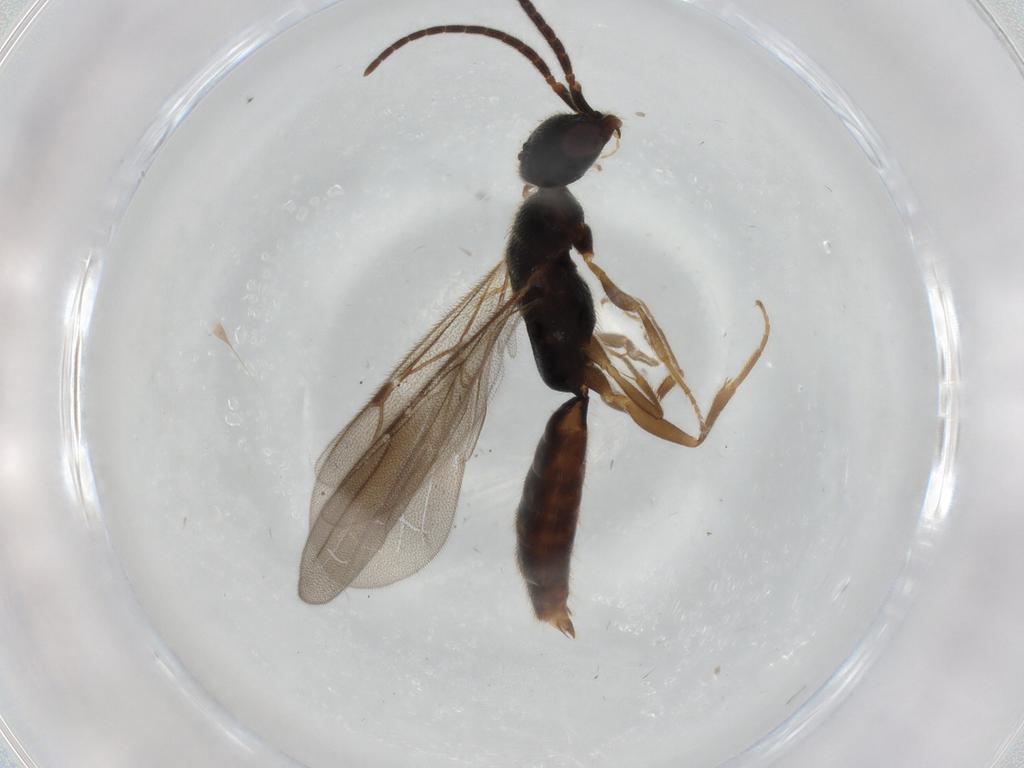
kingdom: Animalia
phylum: Arthropoda
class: Insecta
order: Hymenoptera
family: Bethylidae
